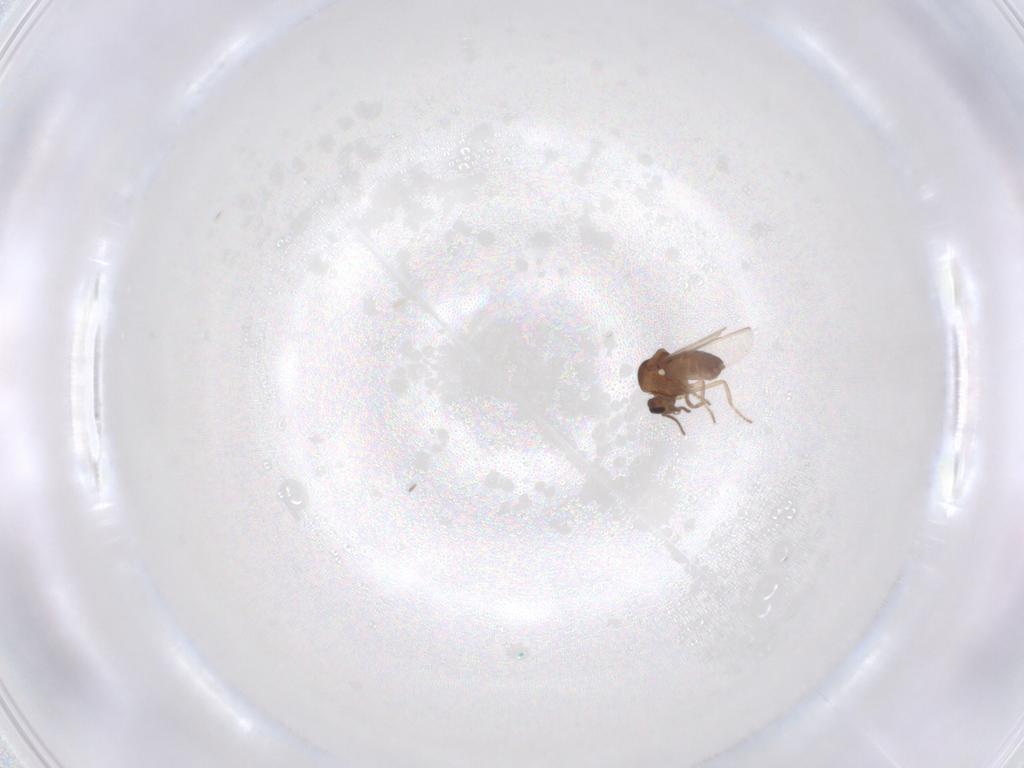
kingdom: Animalia
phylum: Arthropoda
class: Insecta
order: Diptera
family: Ceratopogonidae
